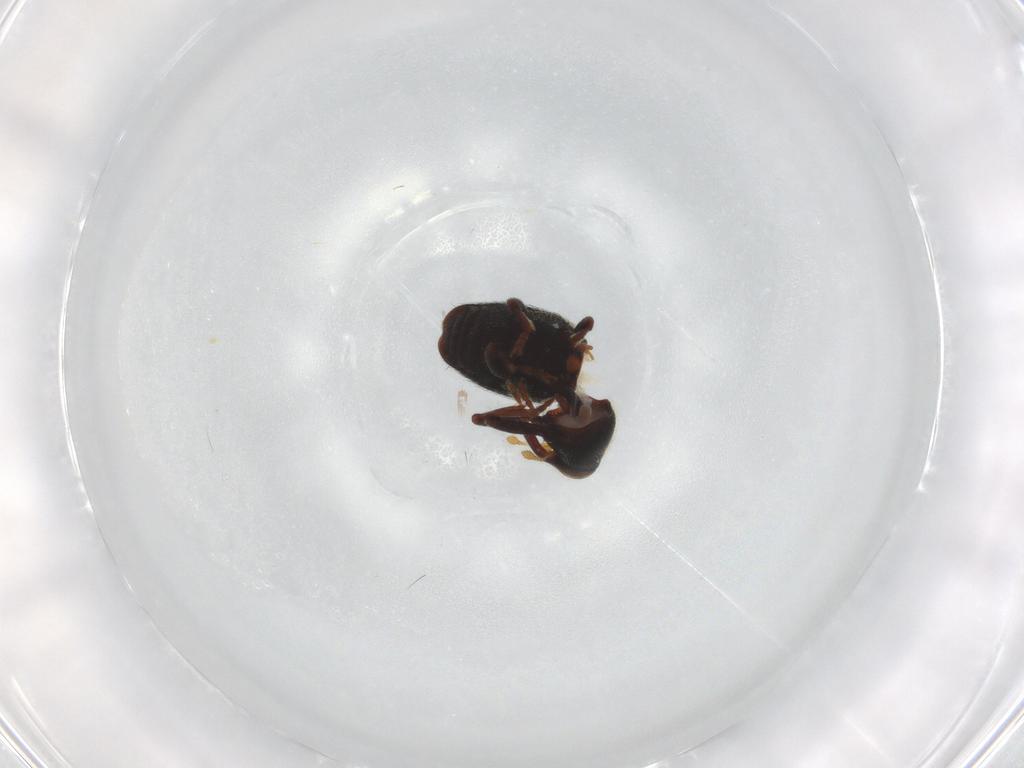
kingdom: Animalia
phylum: Arthropoda
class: Insecta
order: Coleoptera
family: Curculionidae
